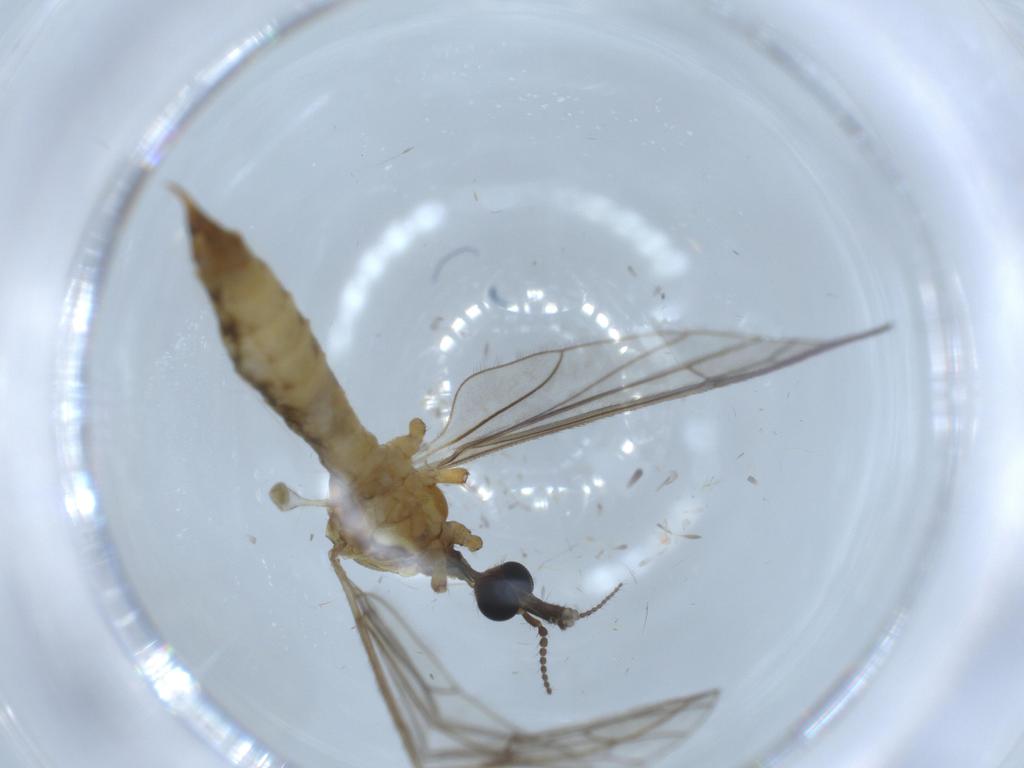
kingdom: Animalia
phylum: Arthropoda
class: Insecta
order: Diptera
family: Limoniidae
